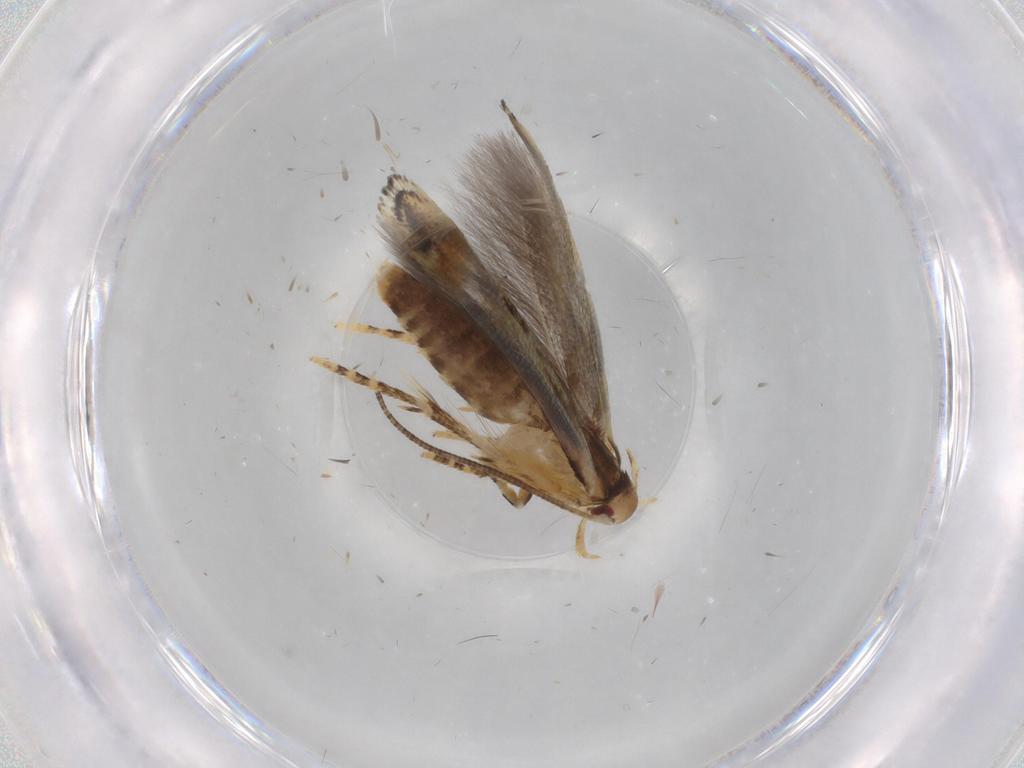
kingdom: Animalia
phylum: Arthropoda
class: Insecta
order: Lepidoptera
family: Momphidae
